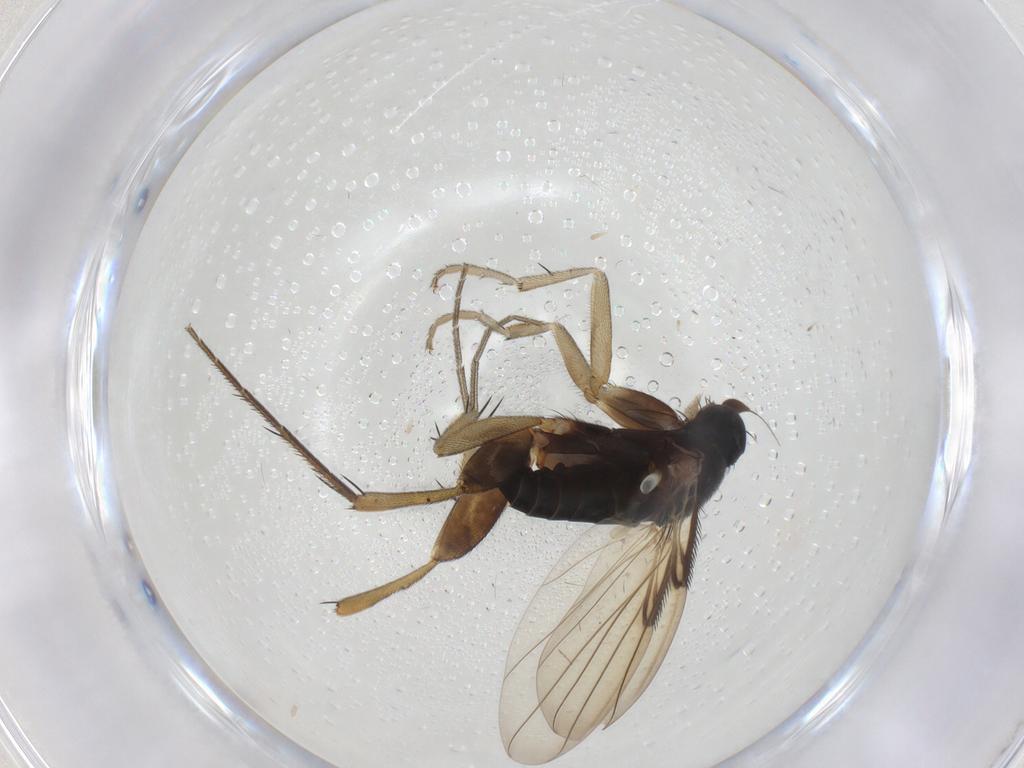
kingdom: Animalia
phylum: Arthropoda
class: Insecta
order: Diptera
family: Phoridae
